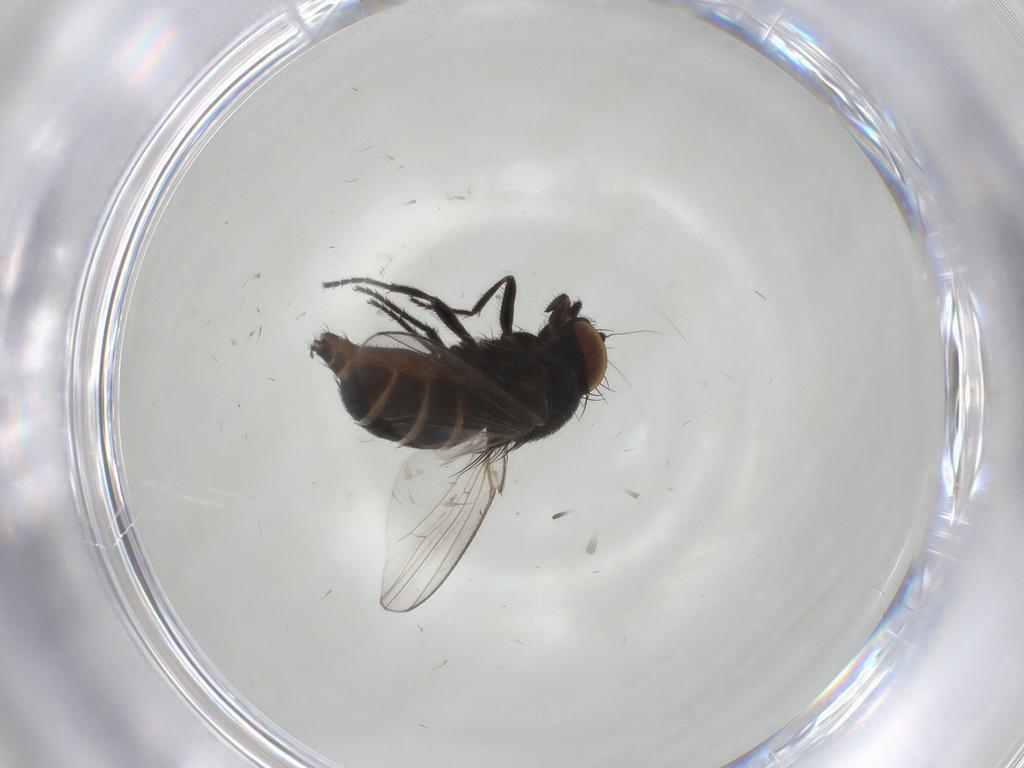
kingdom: Animalia
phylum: Arthropoda
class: Insecta
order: Diptera
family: Milichiidae
